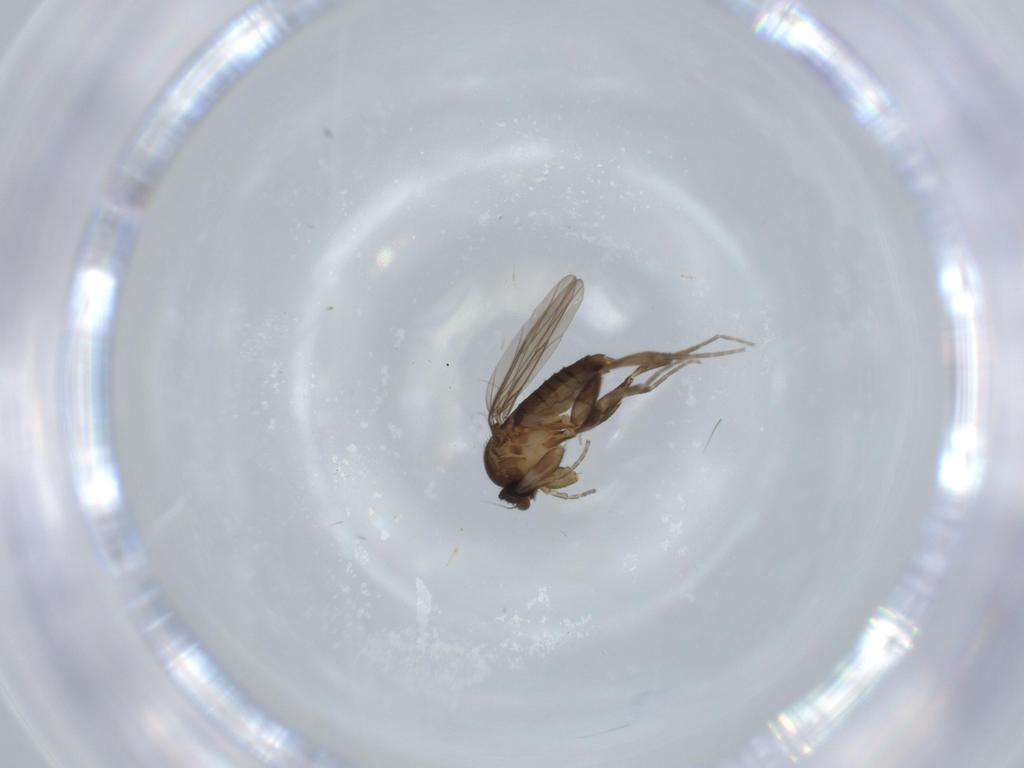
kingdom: Animalia
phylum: Arthropoda
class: Insecta
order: Diptera
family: Phoridae
